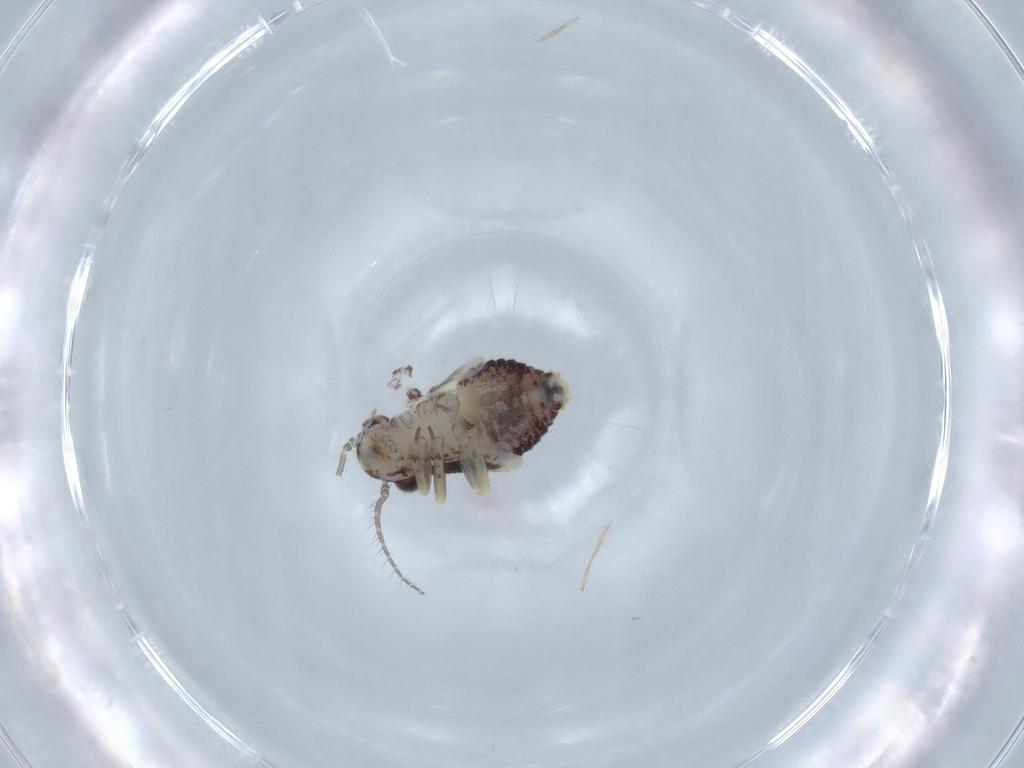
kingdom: Animalia
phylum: Arthropoda
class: Insecta
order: Psocodea
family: Psocidae
